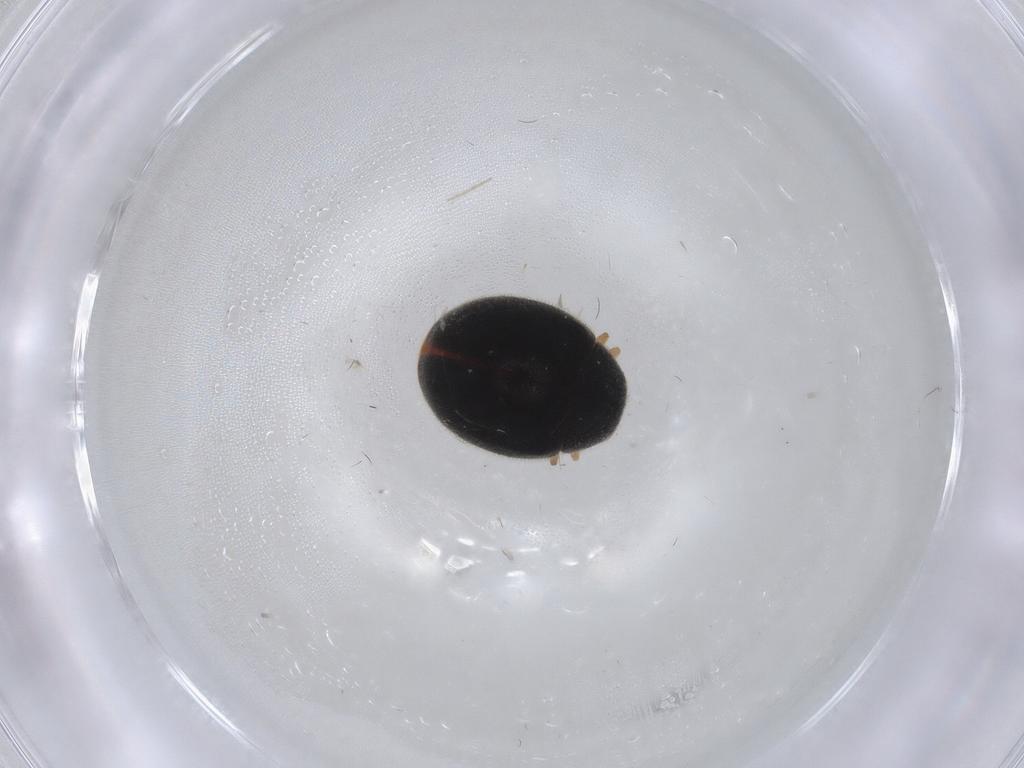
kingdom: Animalia
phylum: Arthropoda
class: Insecta
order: Coleoptera
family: Coccinellidae
